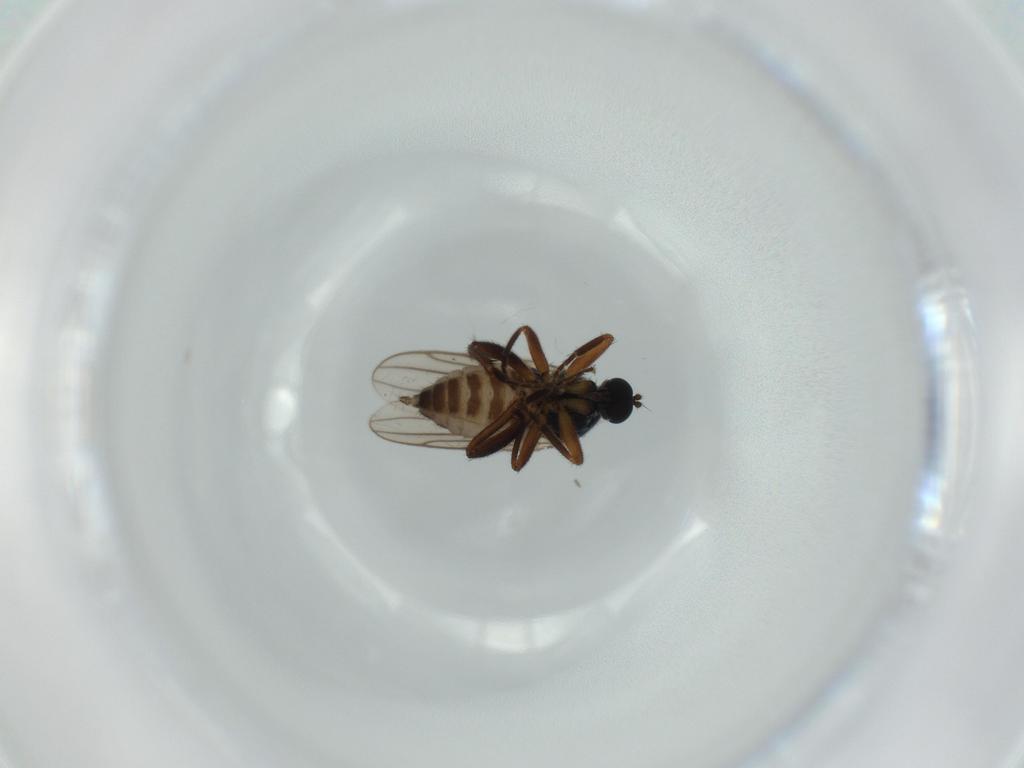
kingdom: Animalia
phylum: Arthropoda
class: Insecta
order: Diptera
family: Hybotidae
